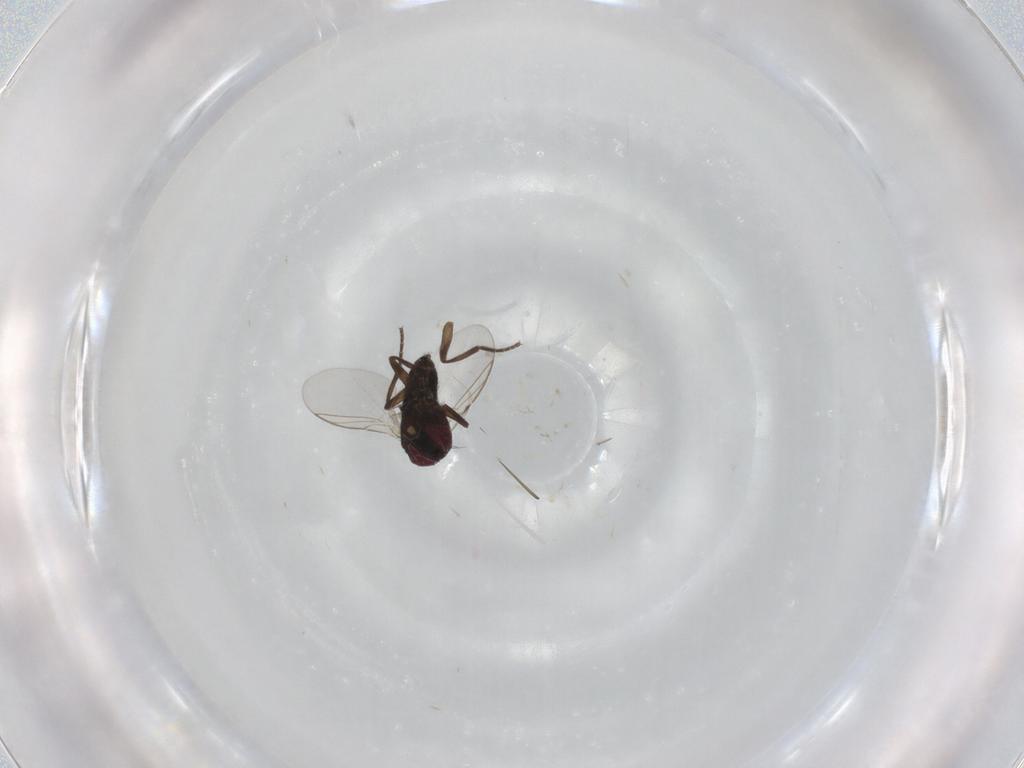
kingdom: Animalia
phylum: Arthropoda
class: Insecta
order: Diptera
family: Agromyzidae
